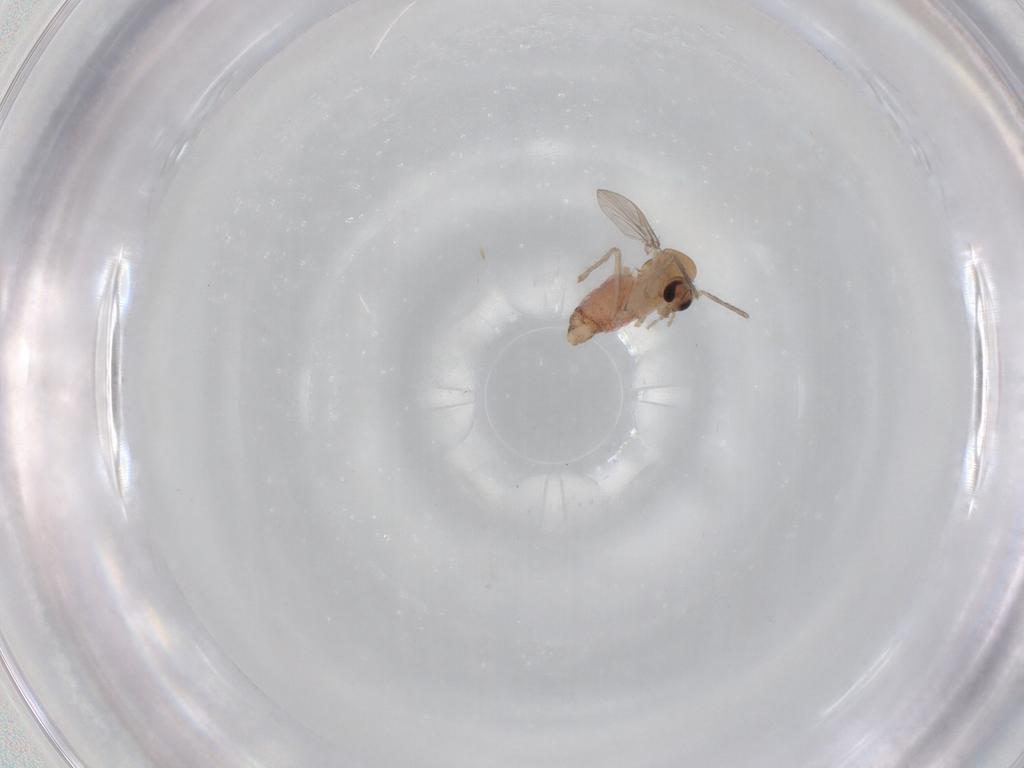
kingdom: Animalia
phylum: Arthropoda
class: Insecta
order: Diptera
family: Chironomidae
